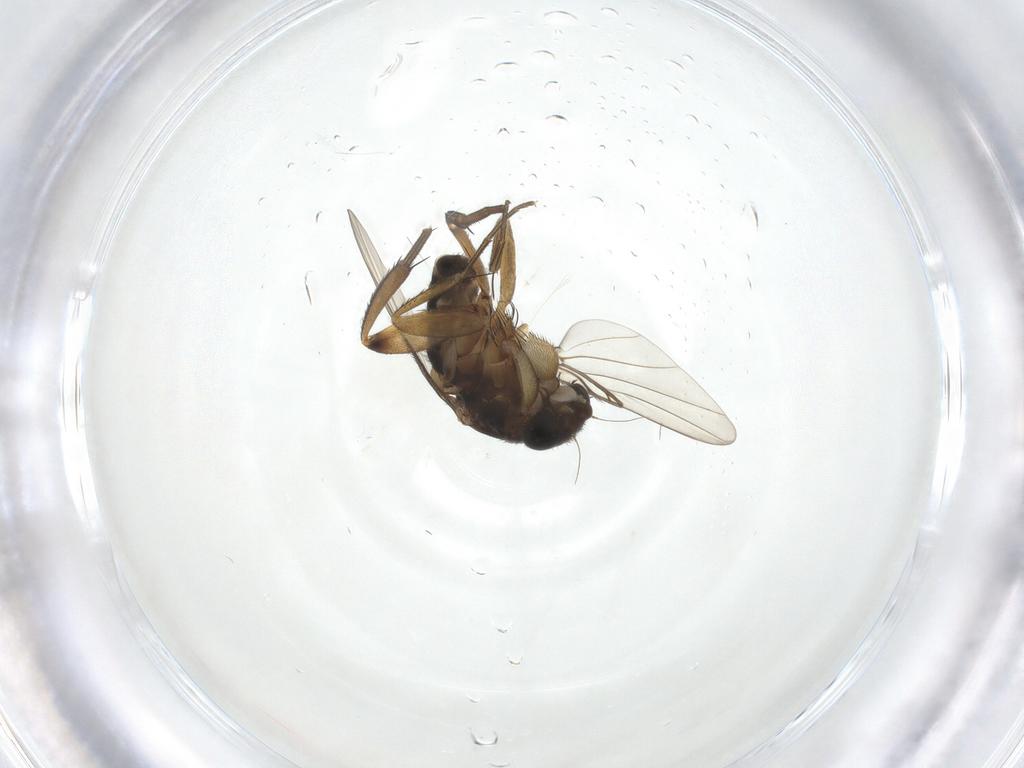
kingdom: Animalia
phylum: Arthropoda
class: Insecta
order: Diptera
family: Phoridae
